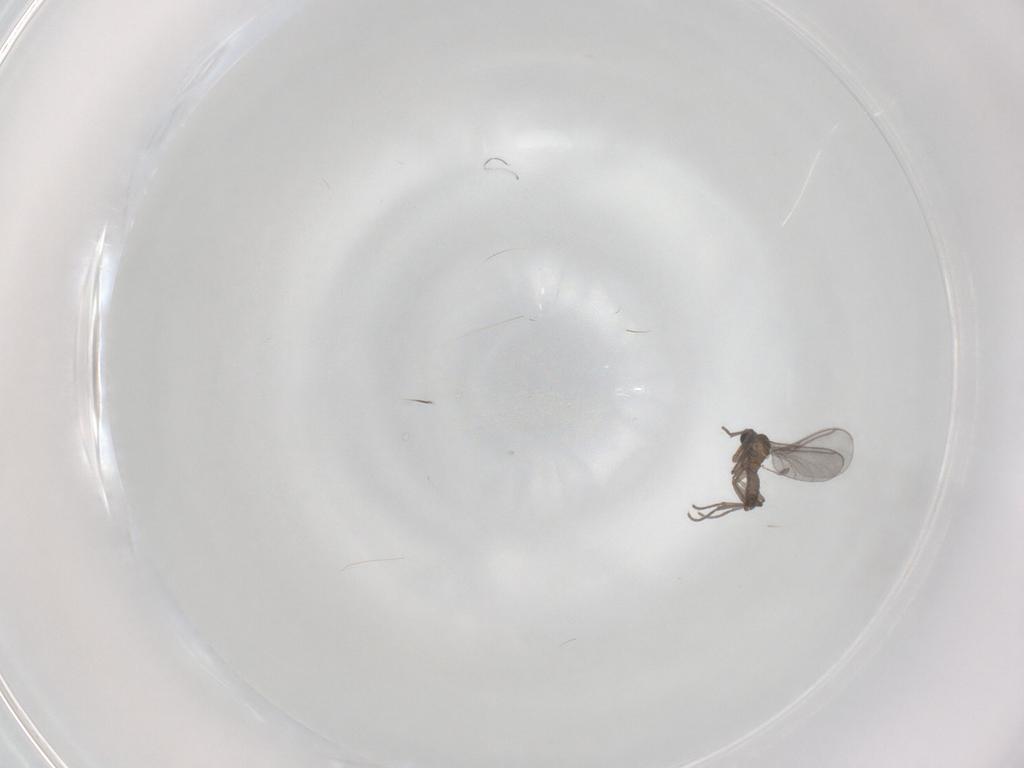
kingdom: Animalia
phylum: Arthropoda
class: Insecta
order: Diptera
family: Sciaridae
